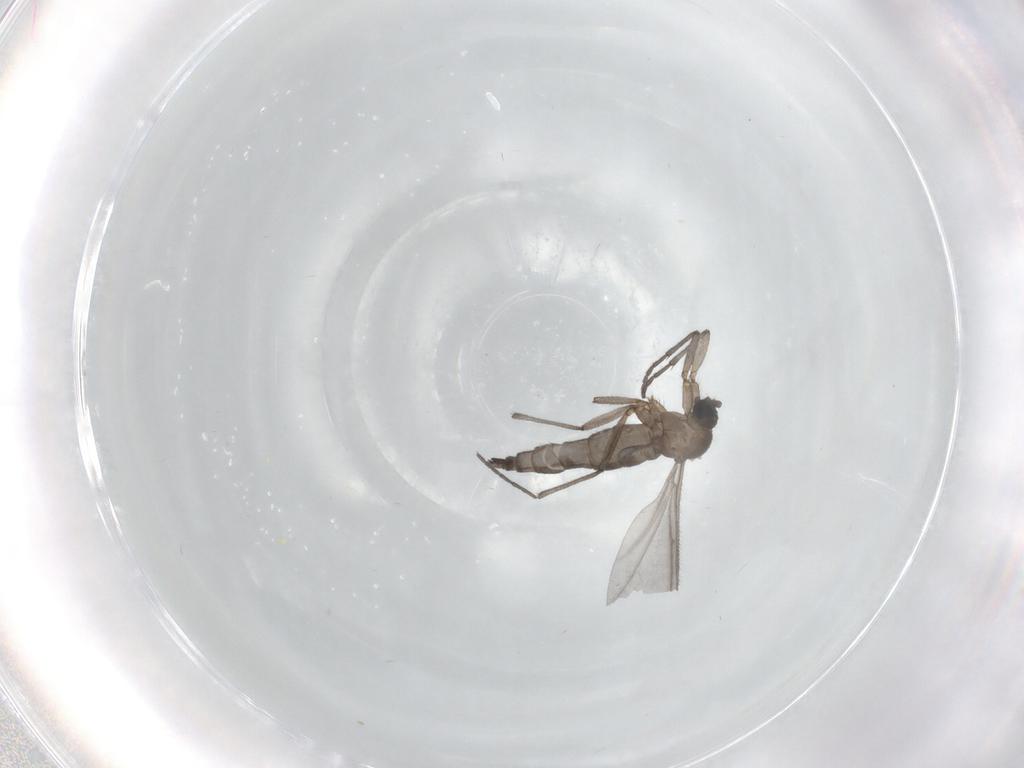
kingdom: Animalia
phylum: Arthropoda
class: Insecta
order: Diptera
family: Sciaridae
